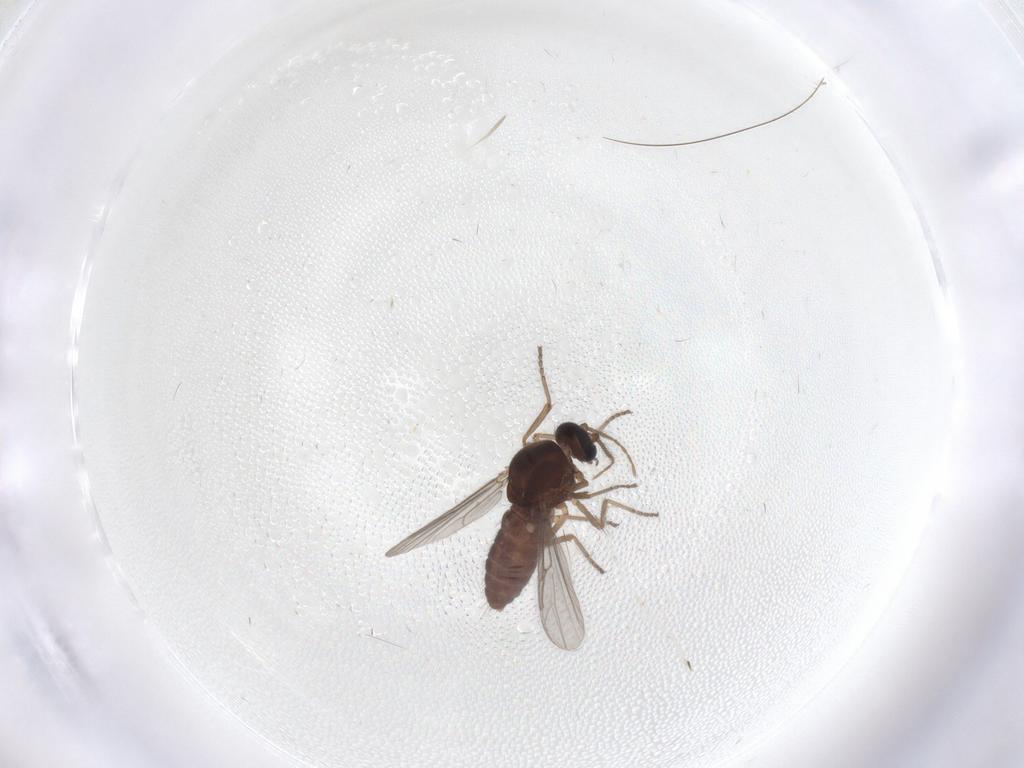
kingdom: Animalia
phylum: Arthropoda
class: Insecta
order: Diptera
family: Ceratopogonidae
